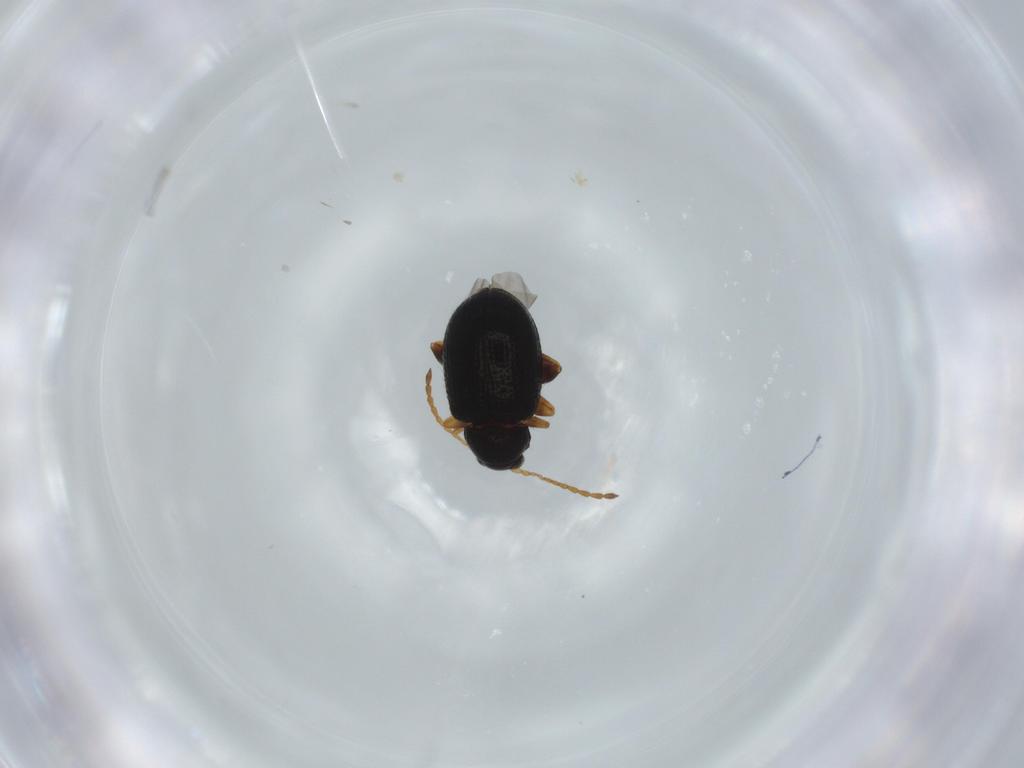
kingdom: Animalia
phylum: Arthropoda
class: Insecta
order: Coleoptera
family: Chrysomelidae
